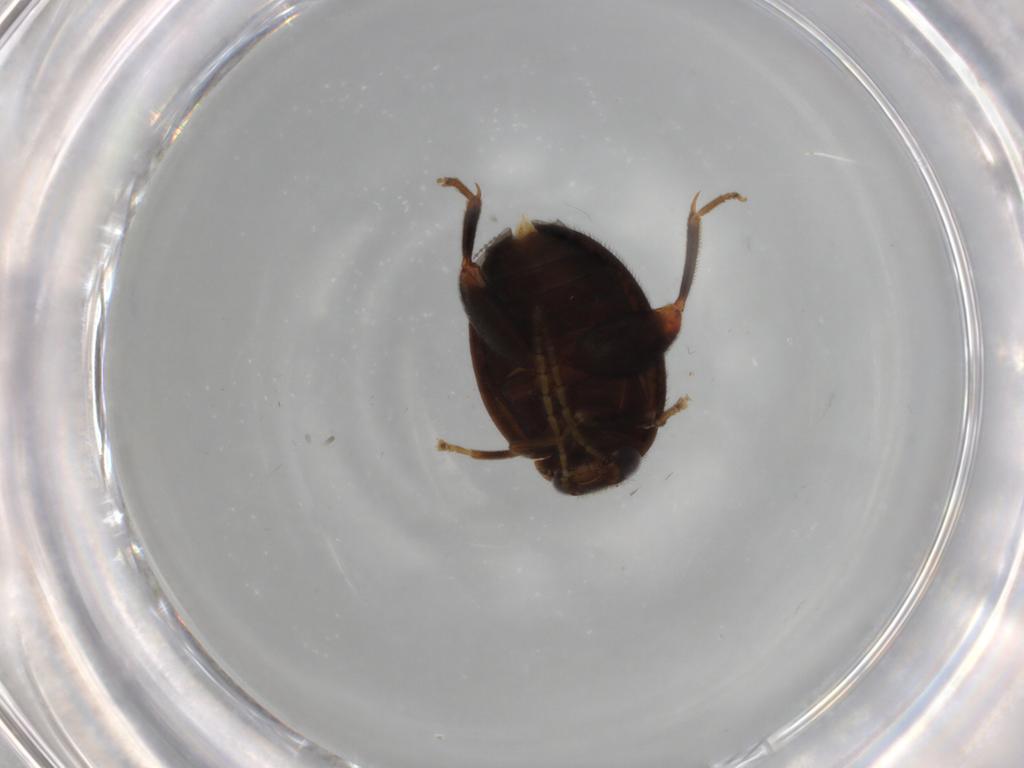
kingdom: Animalia
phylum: Arthropoda
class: Insecta
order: Coleoptera
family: Scirtidae
